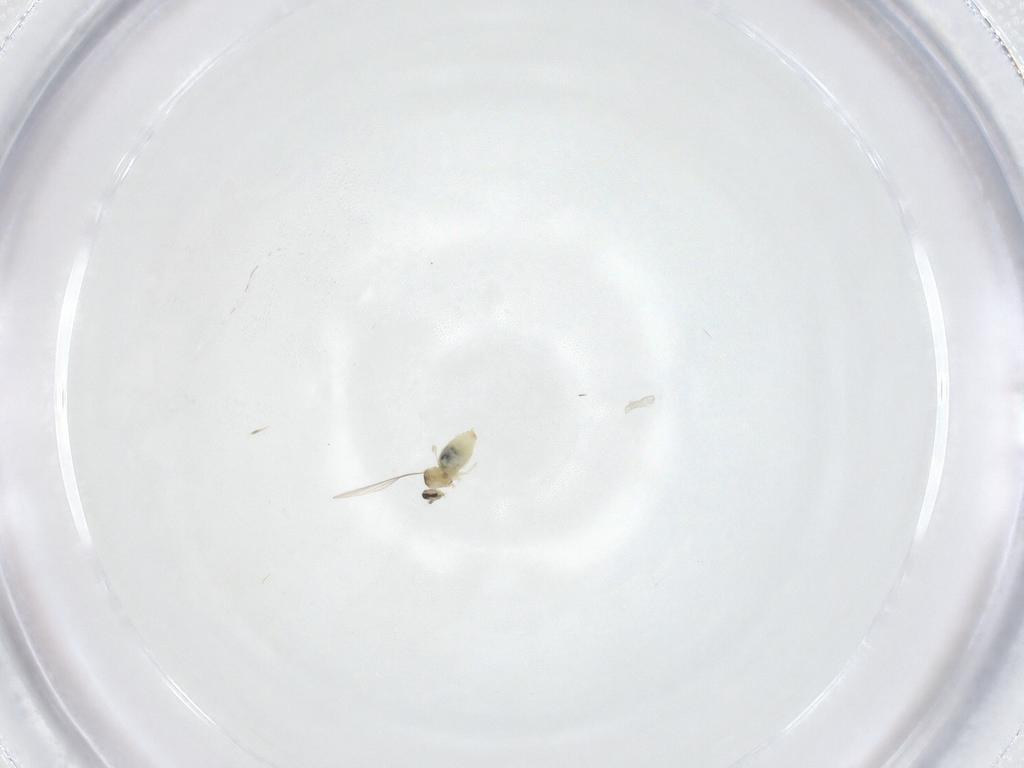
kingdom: Animalia
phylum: Arthropoda
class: Insecta
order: Diptera
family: Cecidomyiidae
